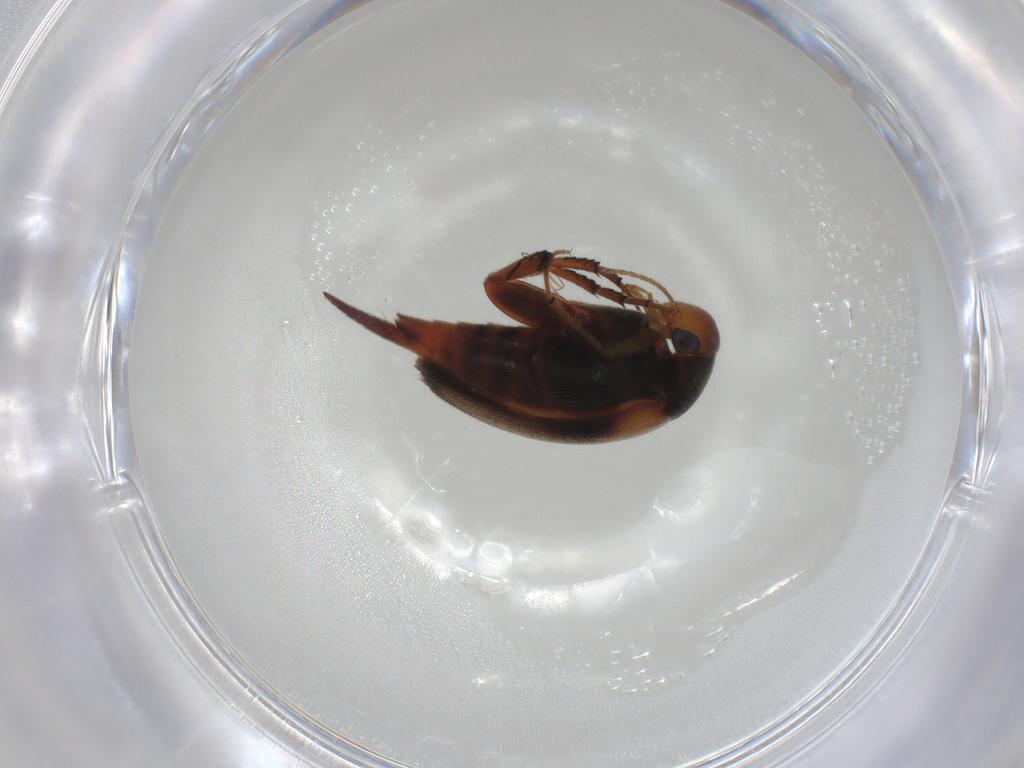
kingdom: Animalia
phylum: Arthropoda
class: Insecta
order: Coleoptera
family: Mordellidae
